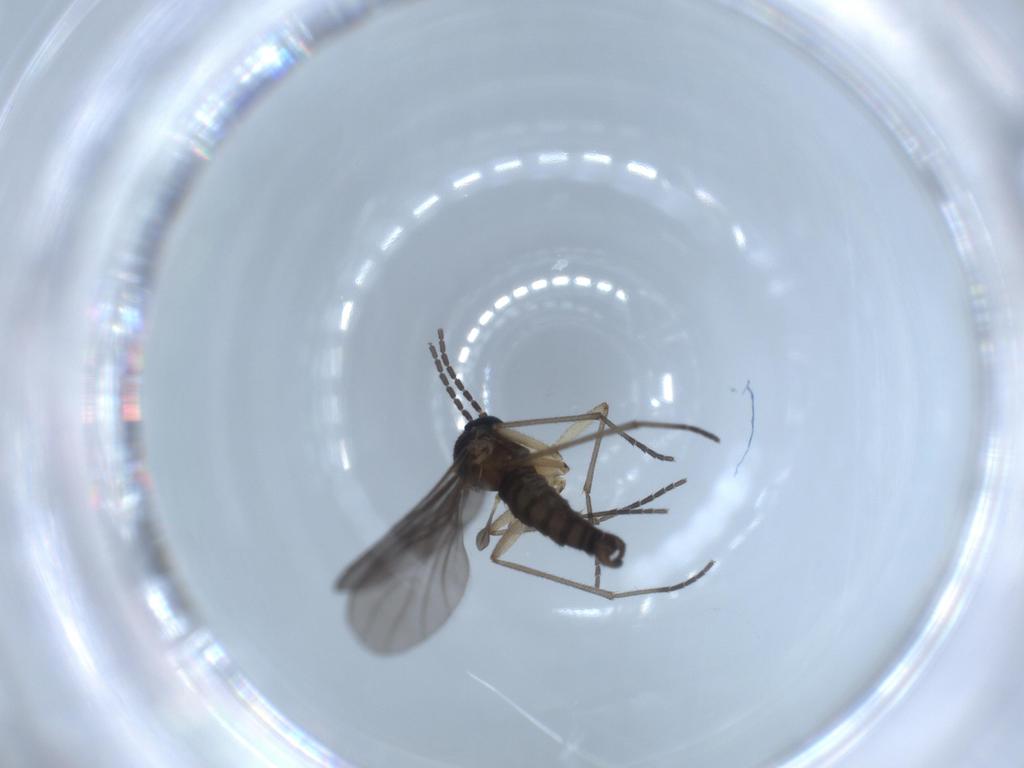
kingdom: Animalia
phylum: Arthropoda
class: Insecta
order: Diptera
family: Sciaridae
